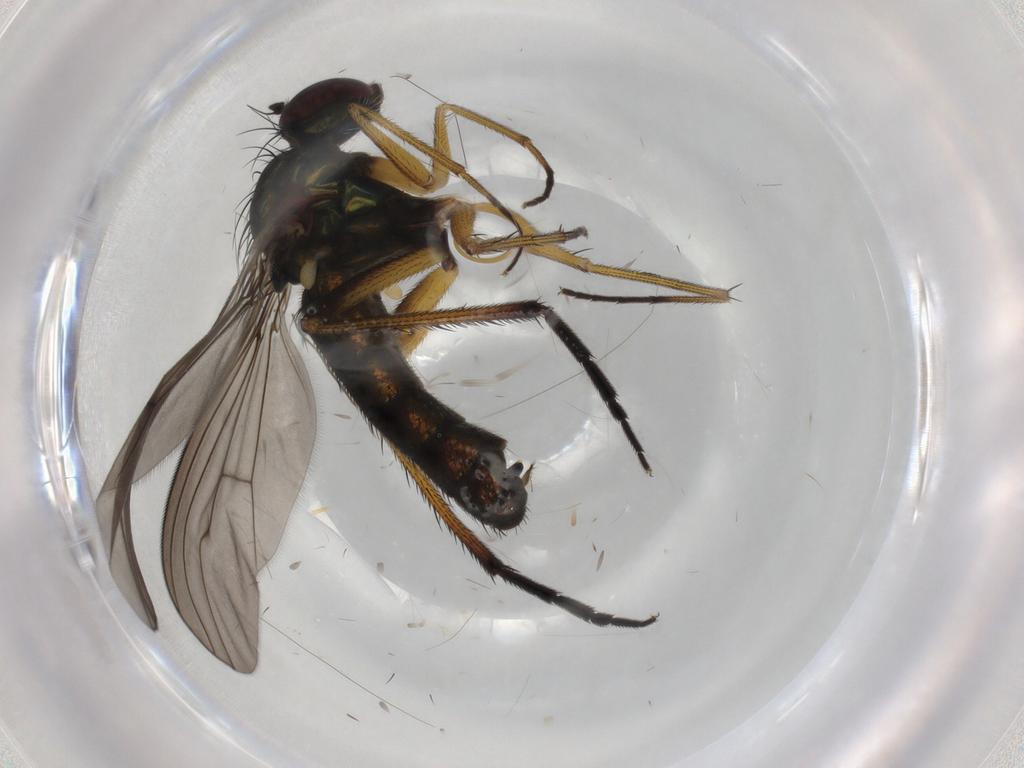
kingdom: Animalia
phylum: Arthropoda
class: Insecta
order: Diptera
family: Dolichopodidae
